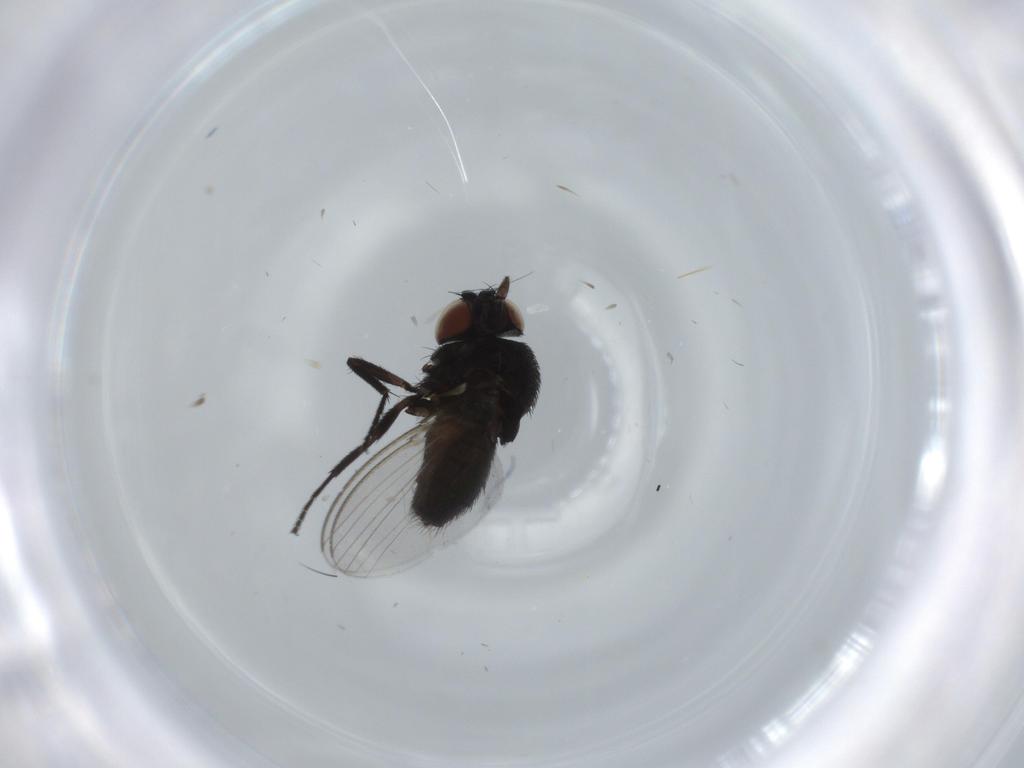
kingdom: Animalia
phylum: Arthropoda
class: Insecta
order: Diptera
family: Milichiidae
